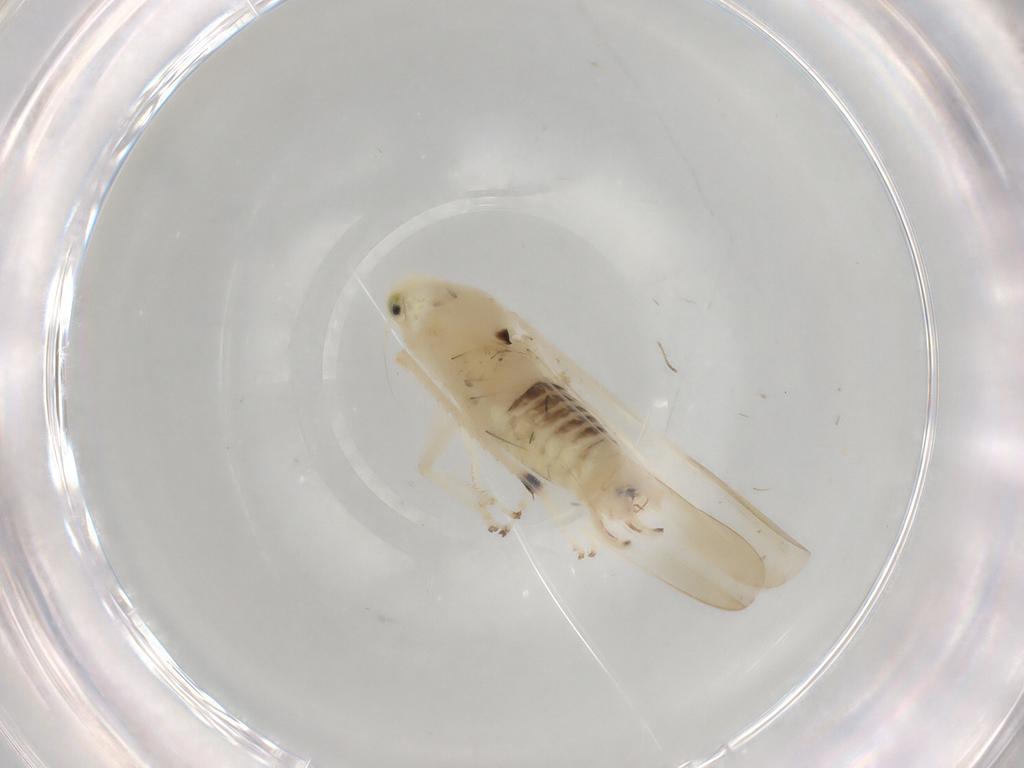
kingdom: Animalia
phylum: Arthropoda
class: Insecta
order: Hemiptera
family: Cicadellidae
